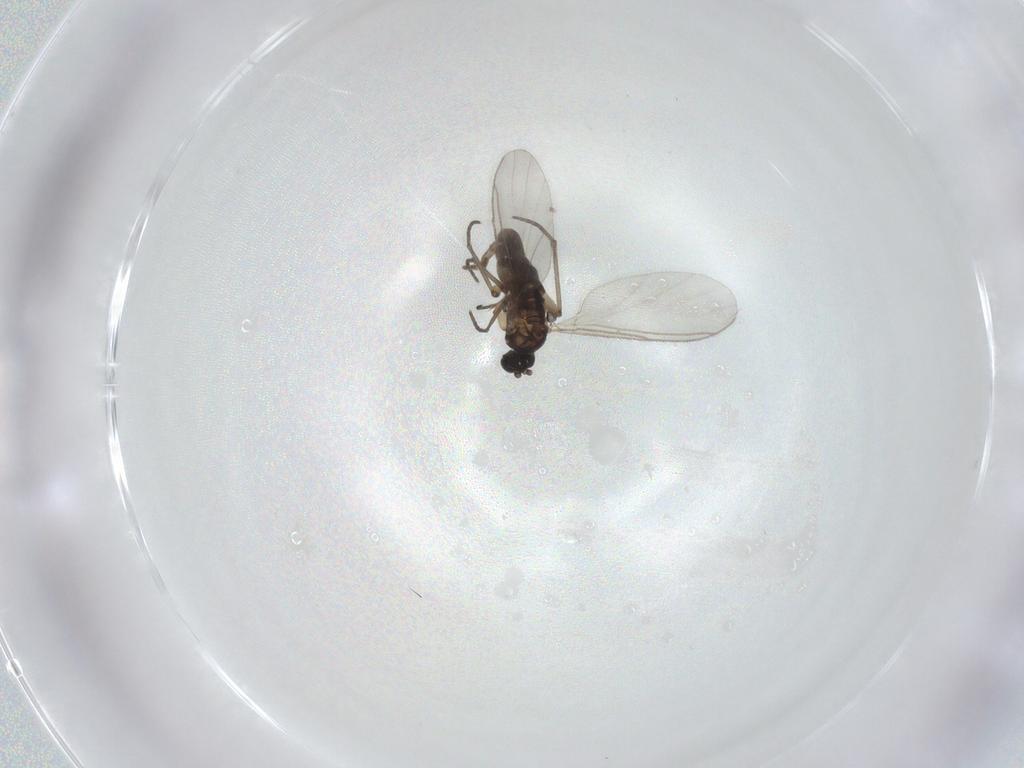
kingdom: Animalia
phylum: Arthropoda
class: Insecta
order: Diptera
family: Sciaridae
